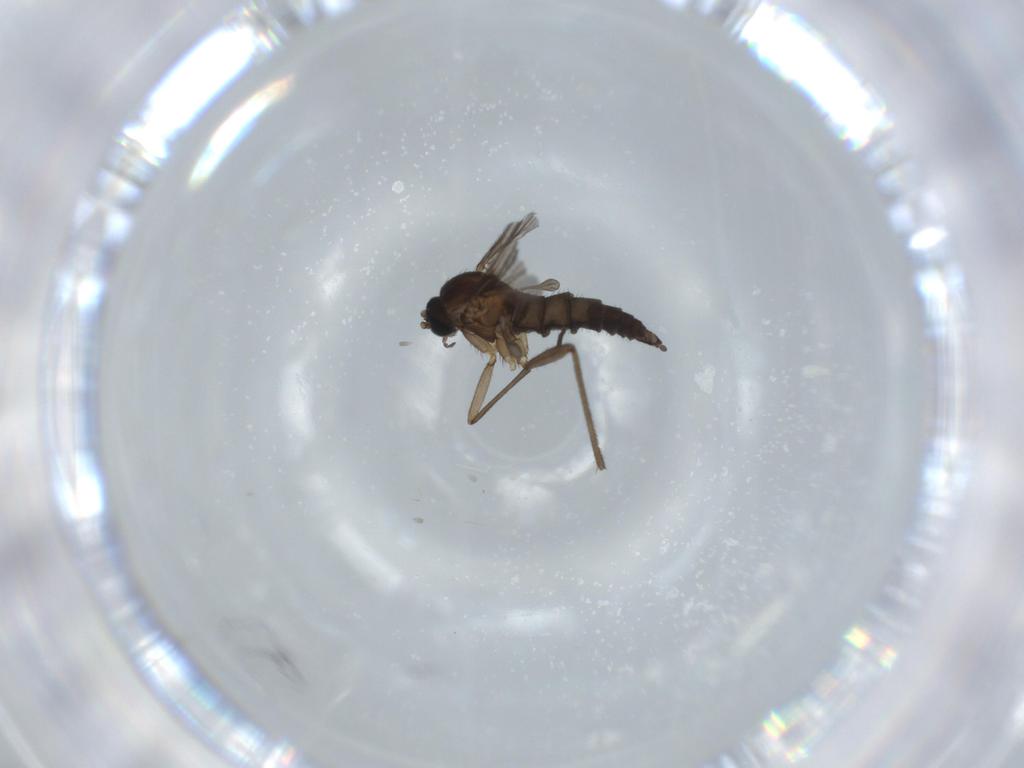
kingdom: Animalia
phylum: Arthropoda
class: Insecta
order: Diptera
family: Sciaridae
